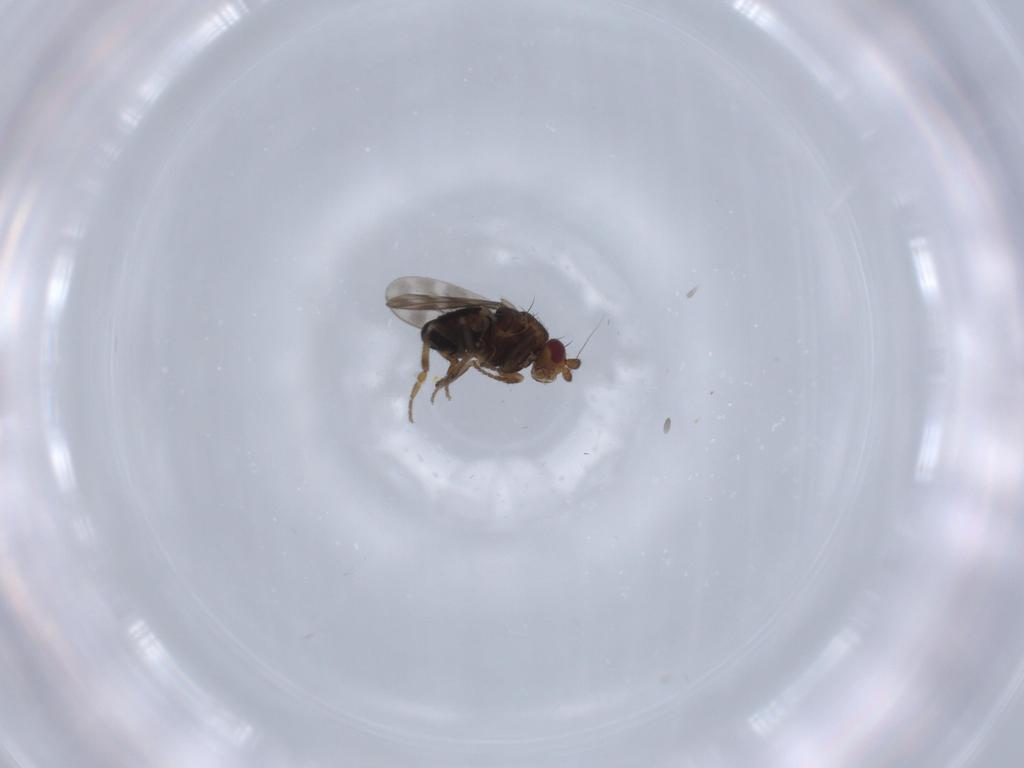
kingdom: Animalia
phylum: Arthropoda
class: Insecta
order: Diptera
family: Sphaeroceridae
